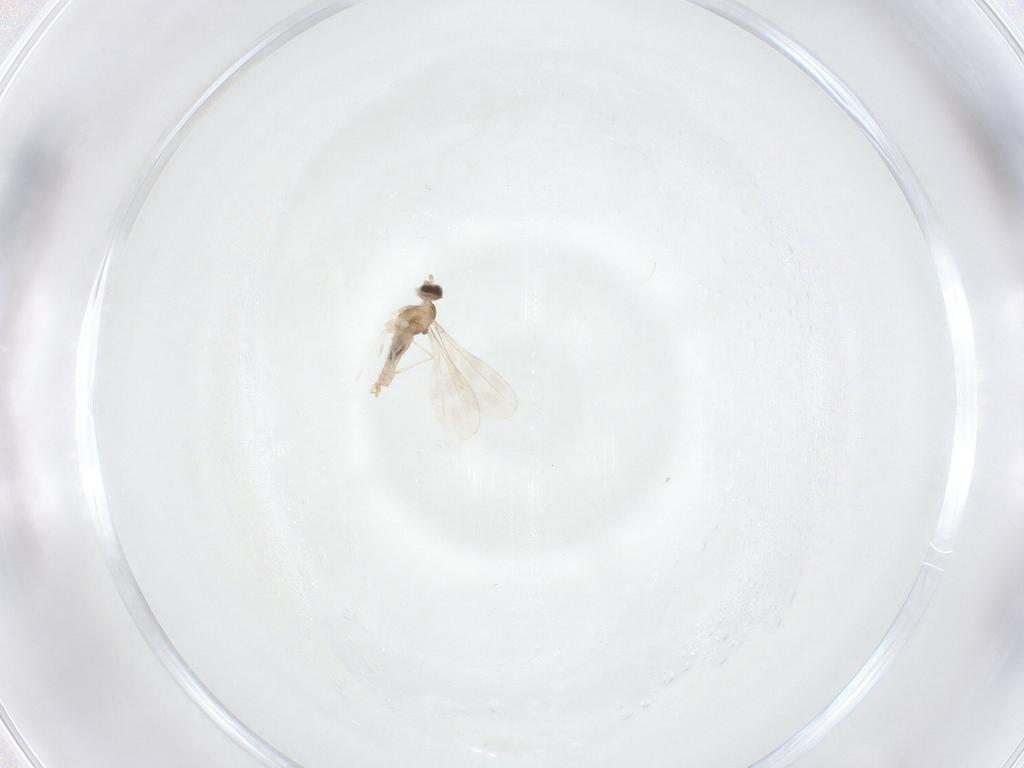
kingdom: Animalia
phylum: Arthropoda
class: Insecta
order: Diptera
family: Cecidomyiidae
